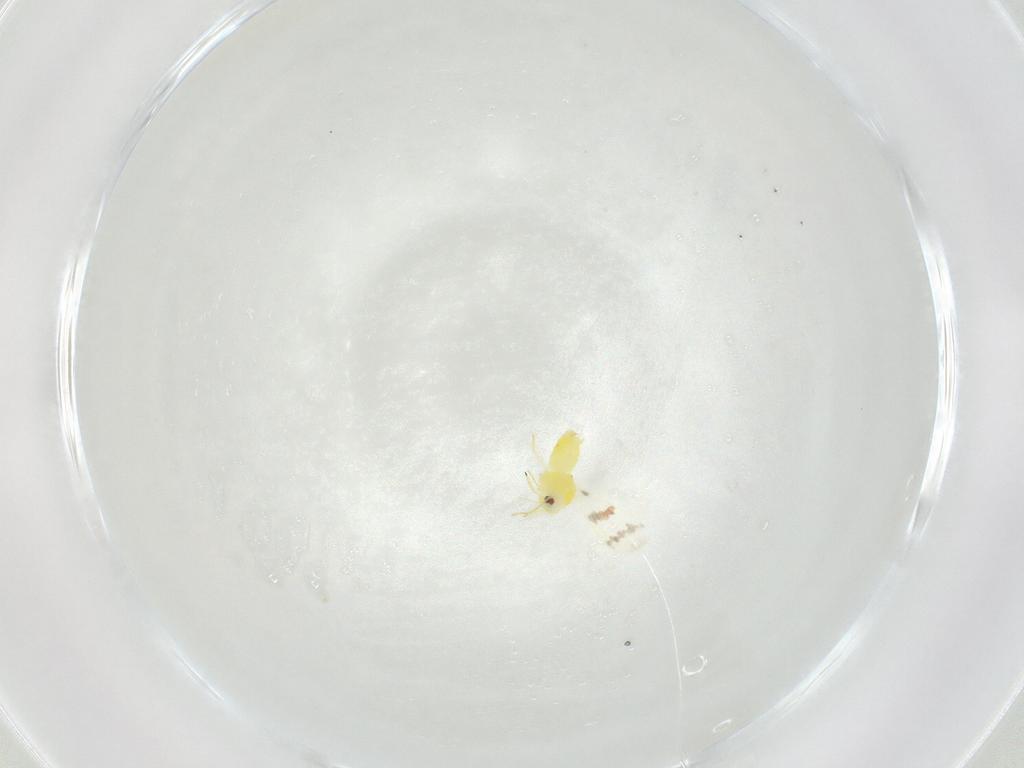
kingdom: Animalia
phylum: Arthropoda
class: Insecta
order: Hemiptera
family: Aleyrodidae
